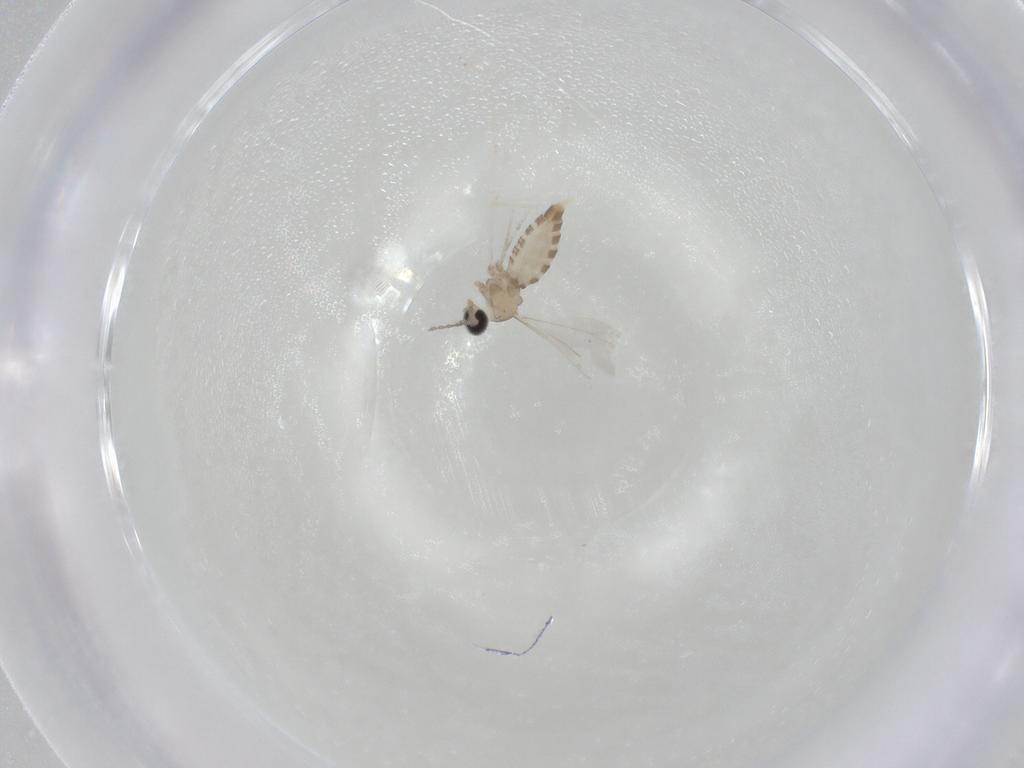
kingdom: Animalia
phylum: Arthropoda
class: Insecta
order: Diptera
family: Cecidomyiidae
